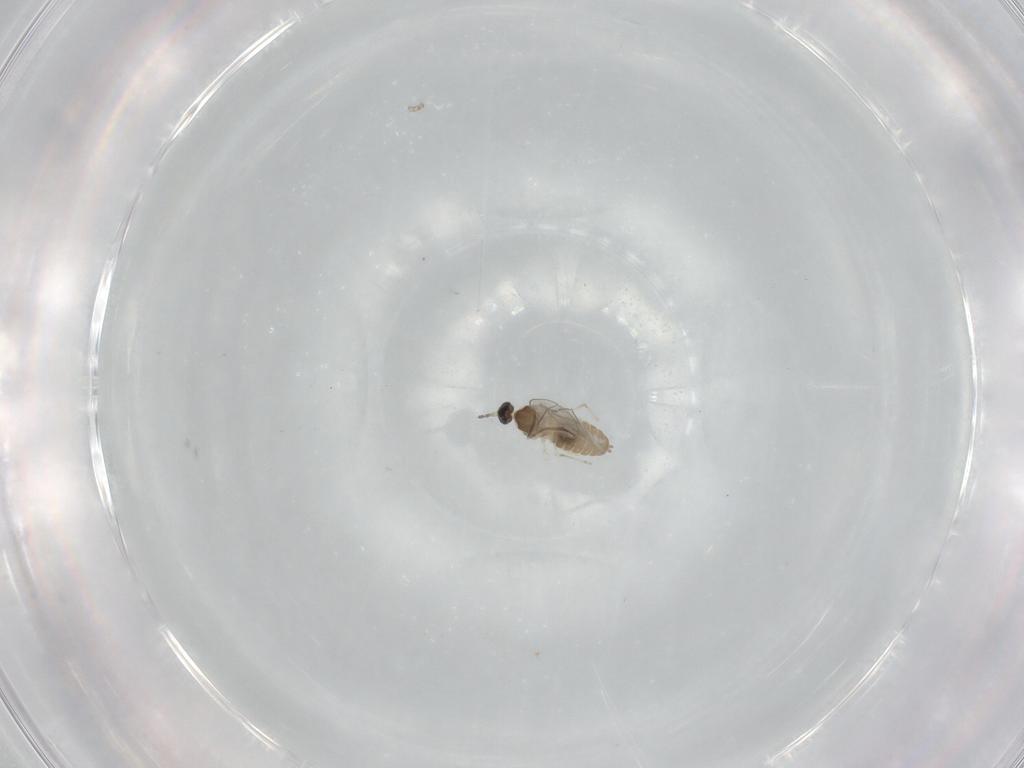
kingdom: Animalia
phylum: Arthropoda
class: Insecta
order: Diptera
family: Cecidomyiidae
